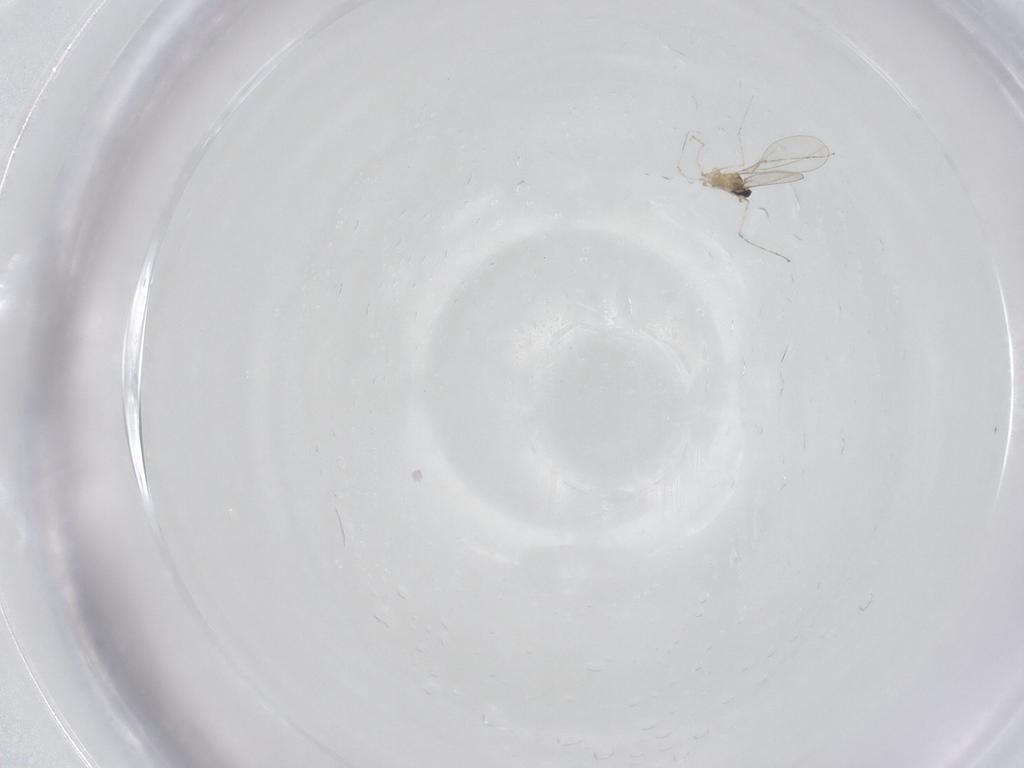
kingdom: Animalia
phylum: Arthropoda
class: Insecta
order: Diptera
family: Cecidomyiidae
